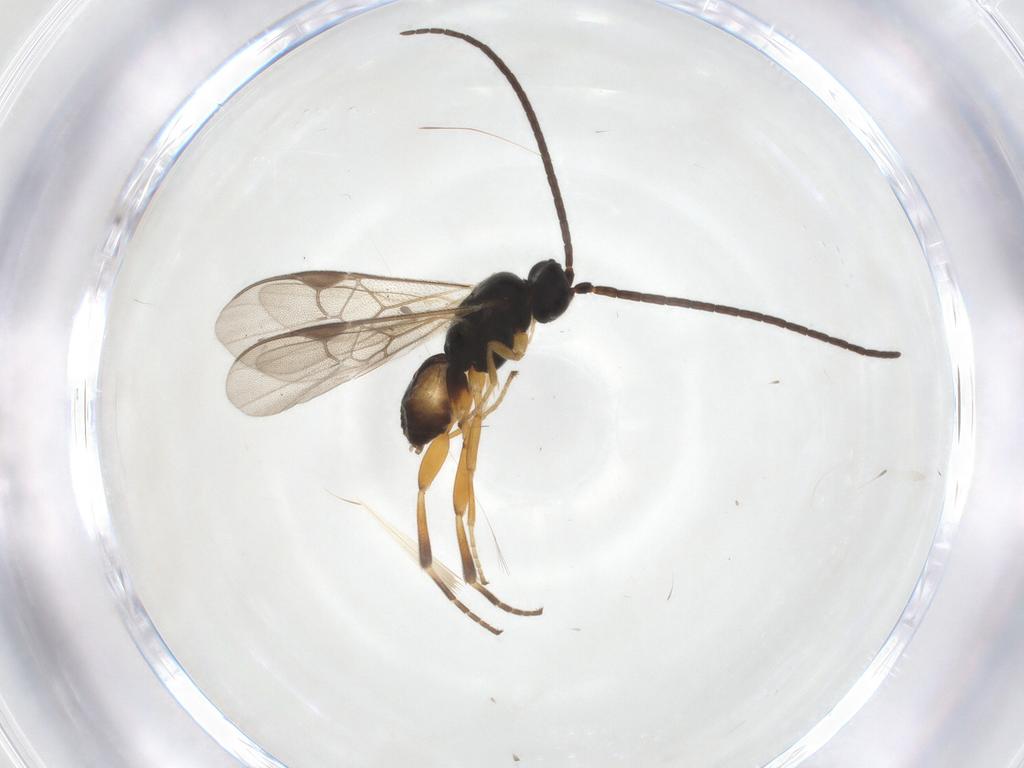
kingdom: Animalia
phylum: Arthropoda
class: Insecta
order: Hymenoptera
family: Braconidae
